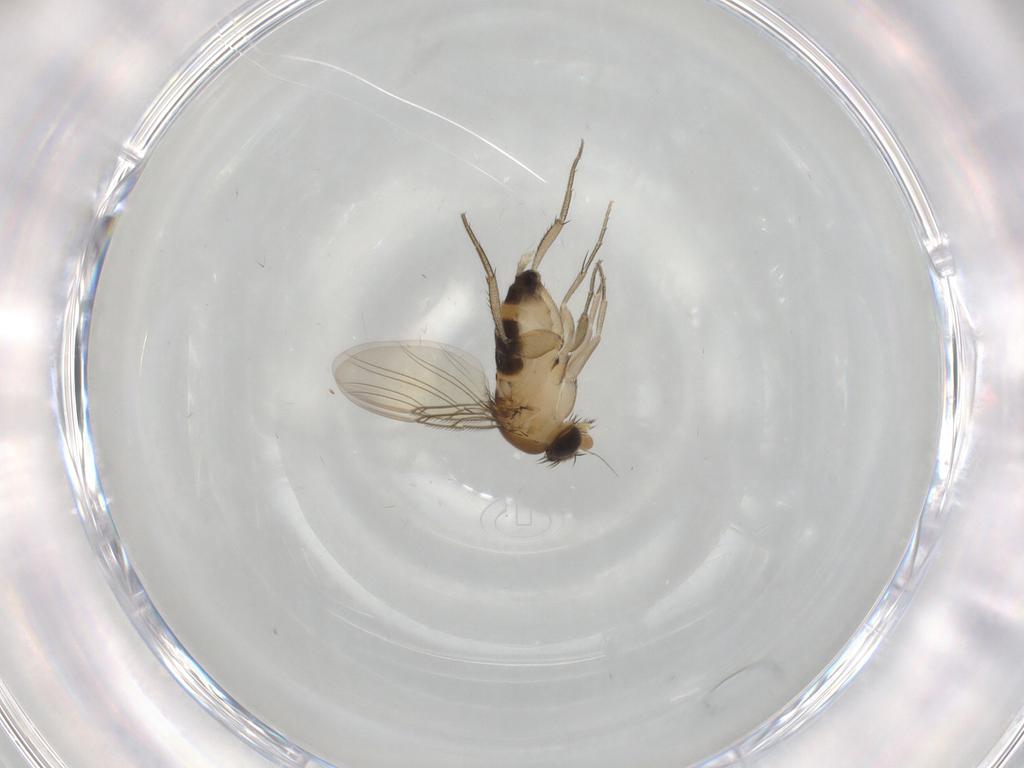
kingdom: Animalia
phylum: Arthropoda
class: Insecta
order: Diptera
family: Phoridae
